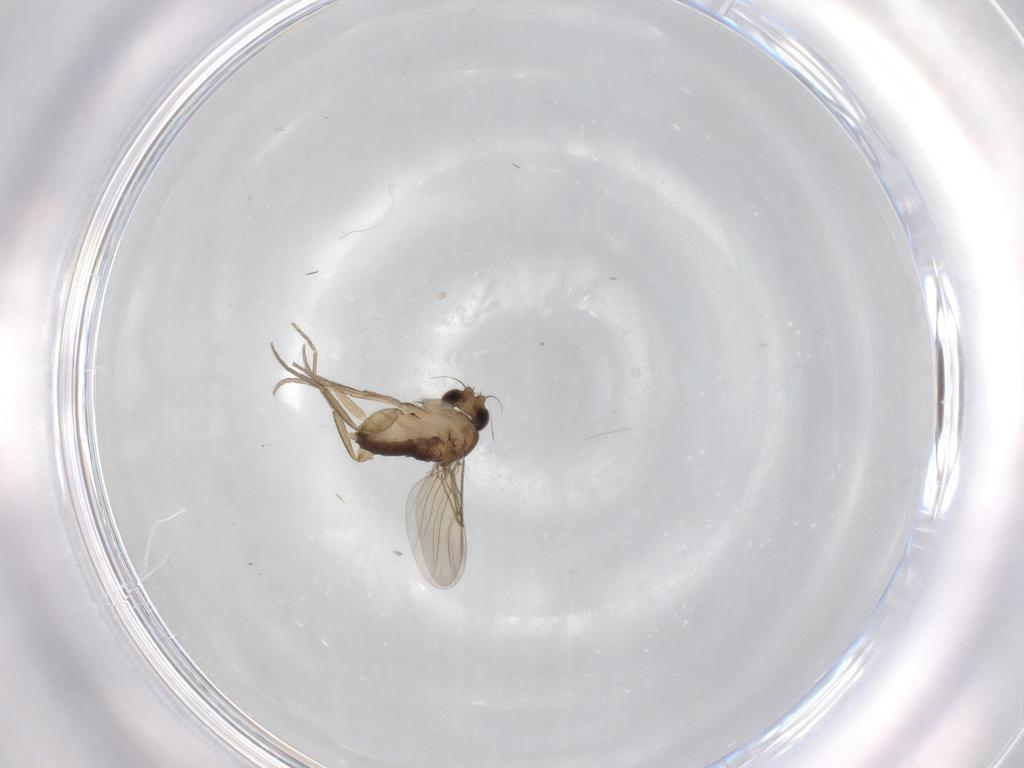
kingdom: Animalia
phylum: Arthropoda
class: Insecta
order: Diptera
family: Phoridae
